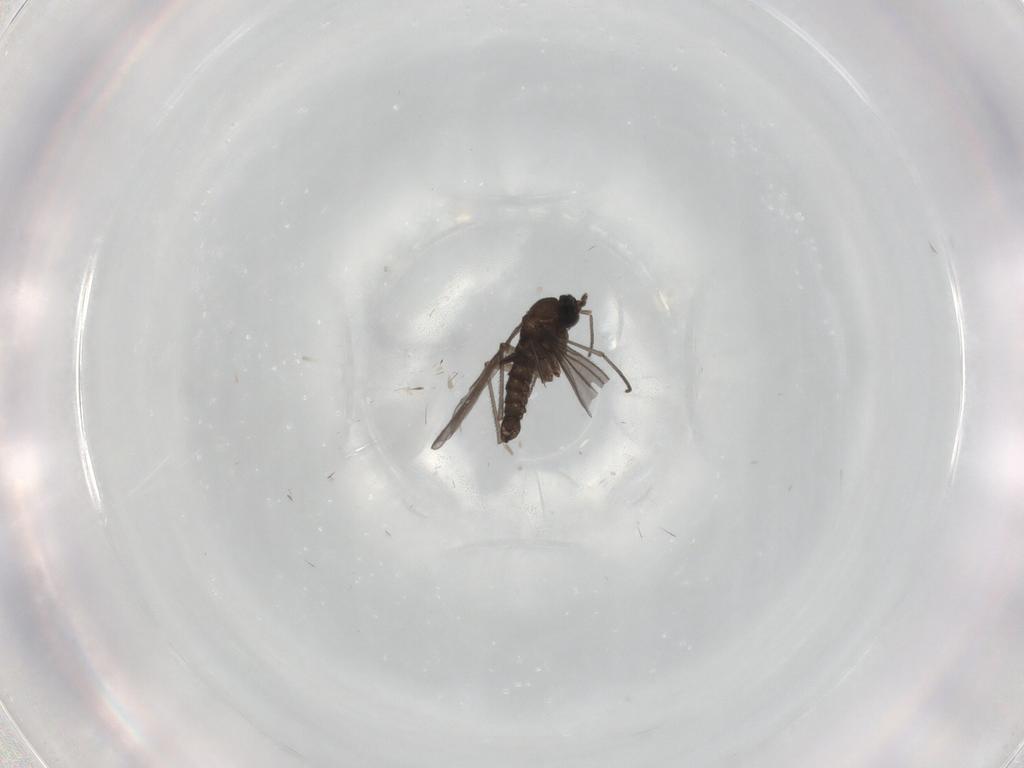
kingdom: Animalia
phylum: Arthropoda
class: Insecta
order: Diptera
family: Sciaridae
